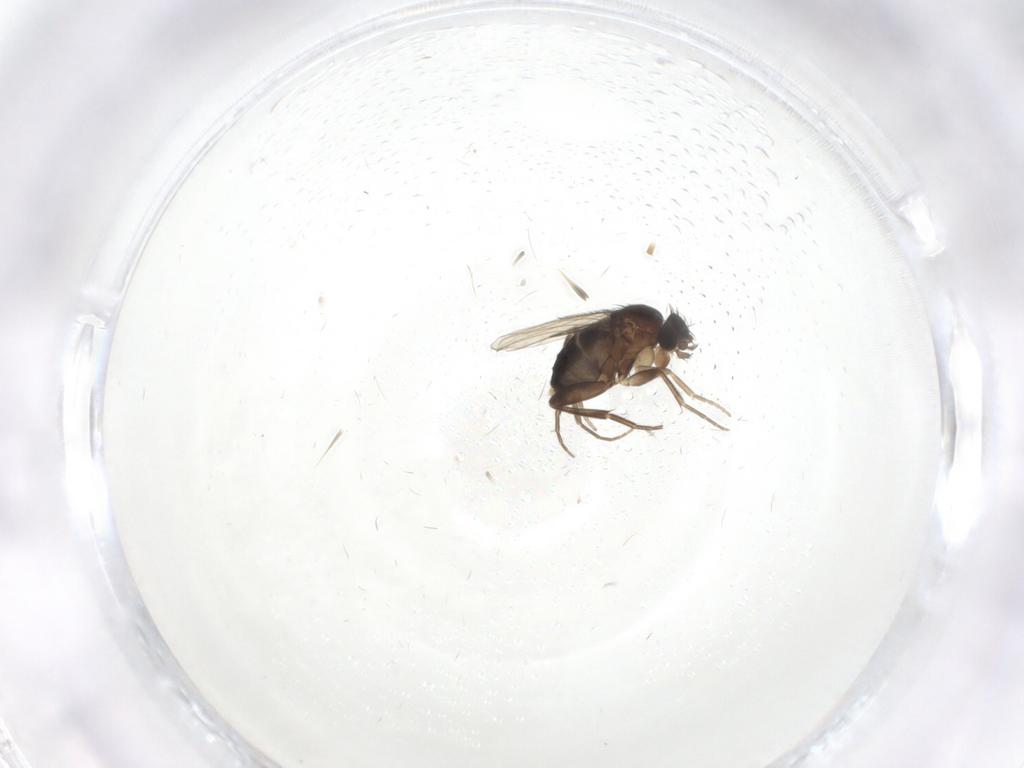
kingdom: Animalia
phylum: Arthropoda
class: Insecta
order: Diptera
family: Phoridae
